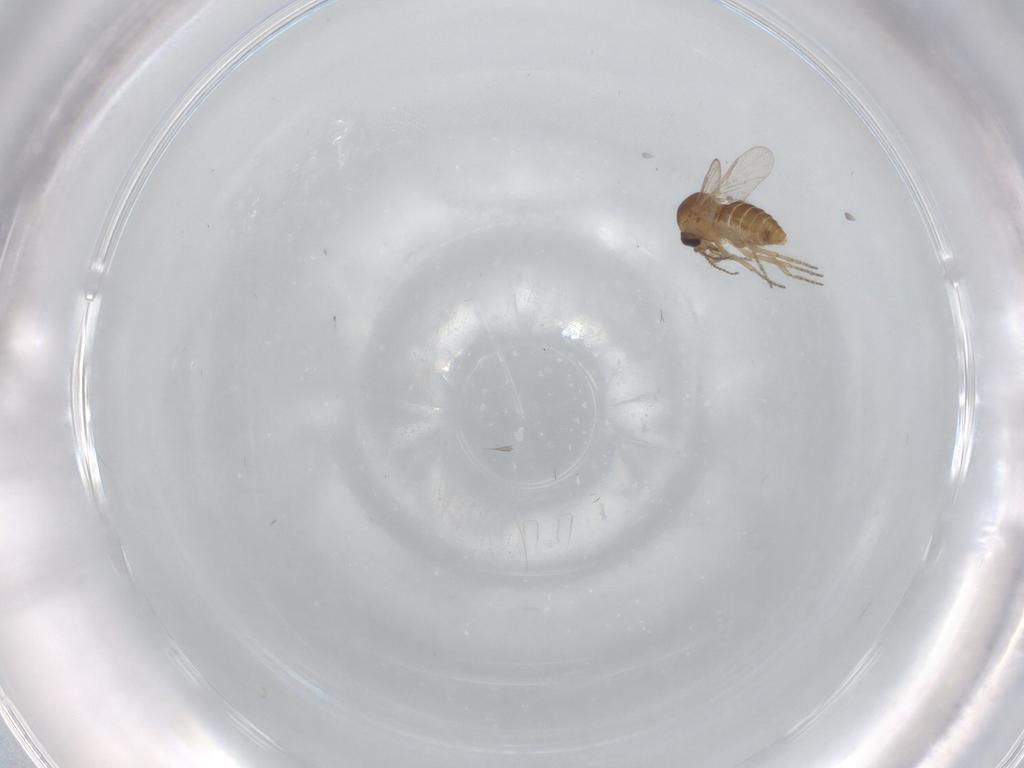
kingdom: Animalia
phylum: Arthropoda
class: Insecta
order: Diptera
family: Ceratopogonidae
